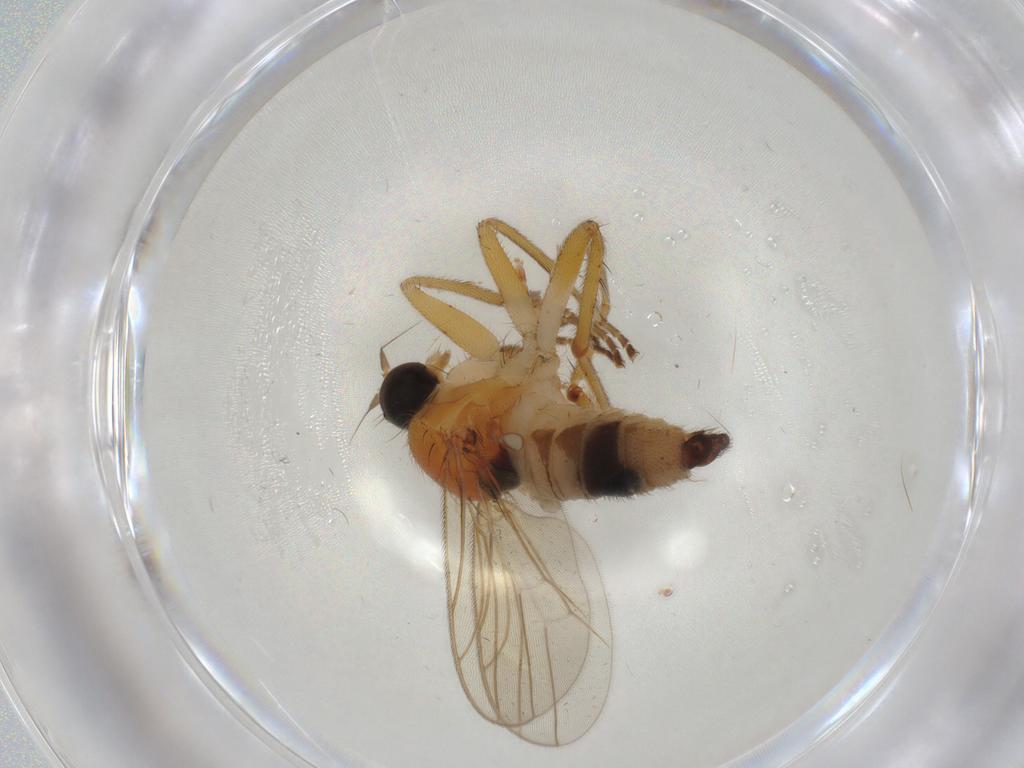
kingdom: Animalia
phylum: Arthropoda
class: Insecta
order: Diptera
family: Hybotidae
